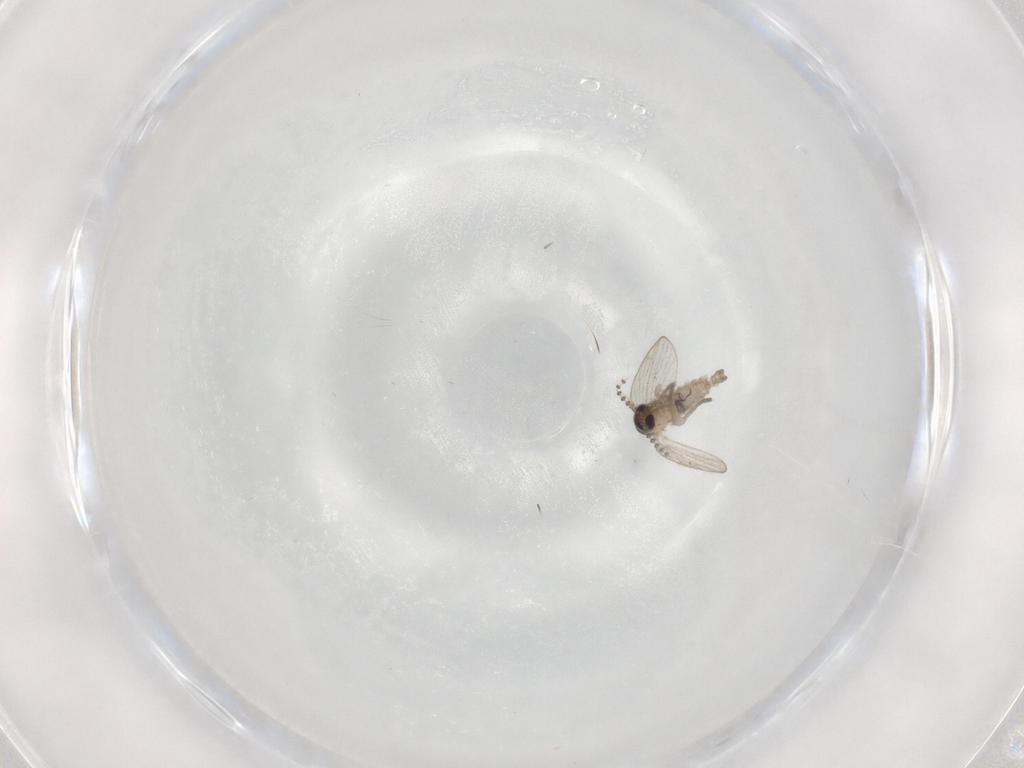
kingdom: Animalia
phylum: Arthropoda
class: Insecta
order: Diptera
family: Psychodidae
